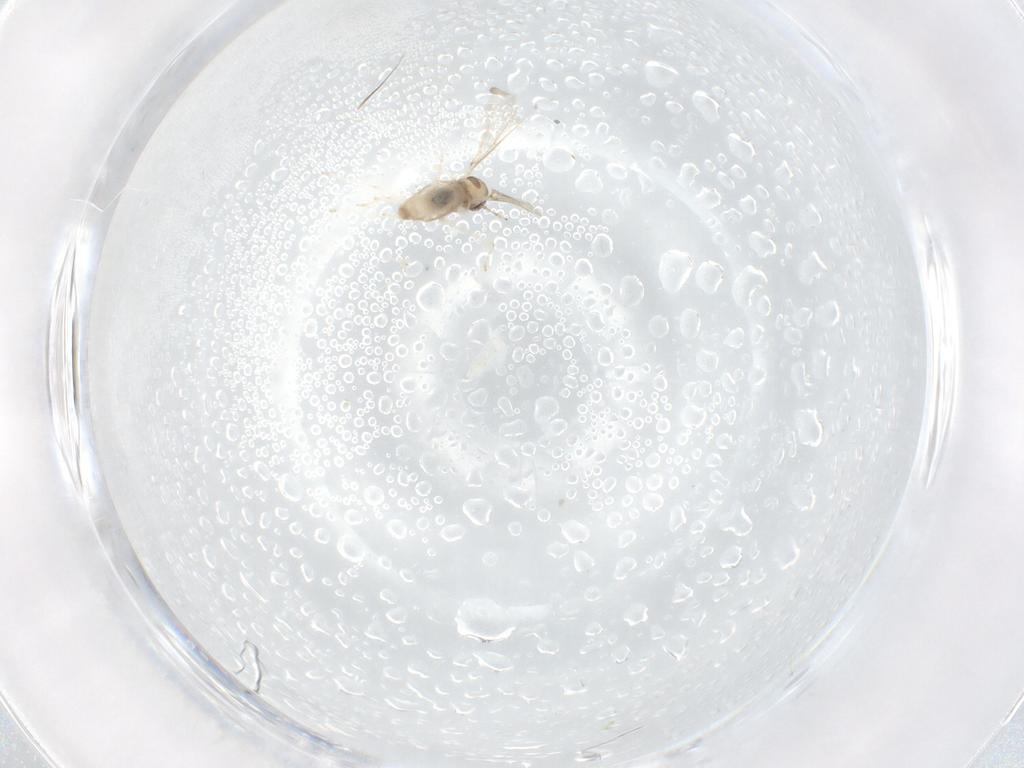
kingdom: Animalia
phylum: Arthropoda
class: Insecta
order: Diptera
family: Cecidomyiidae
